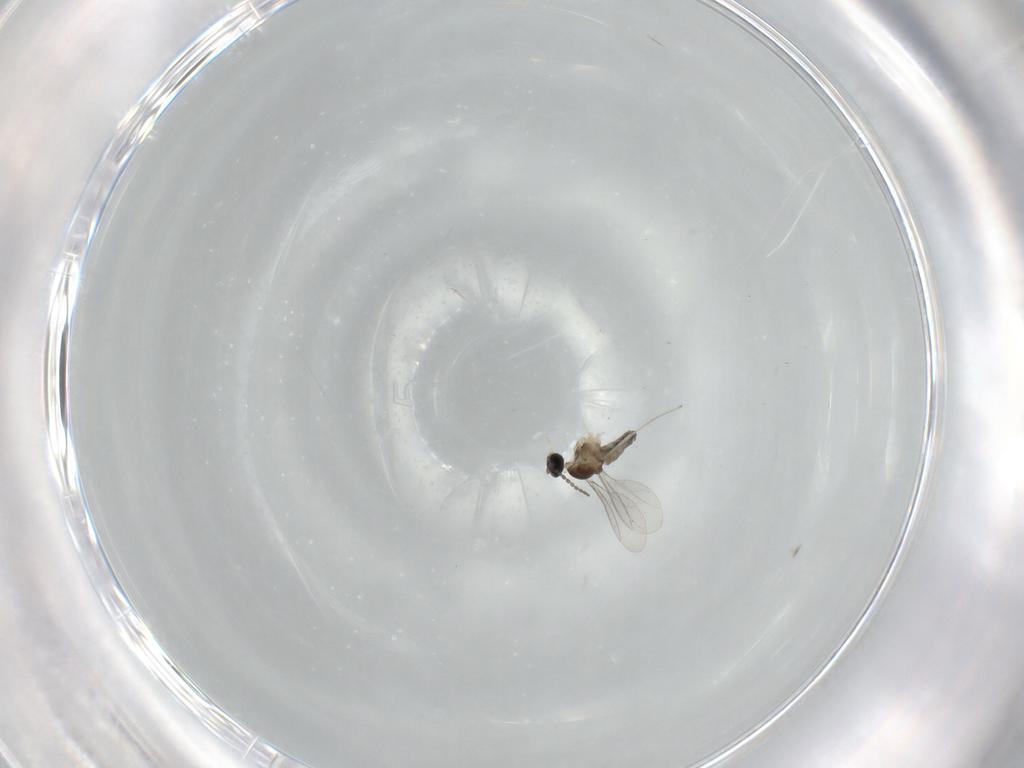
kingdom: Animalia
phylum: Arthropoda
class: Insecta
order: Diptera
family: Cecidomyiidae
